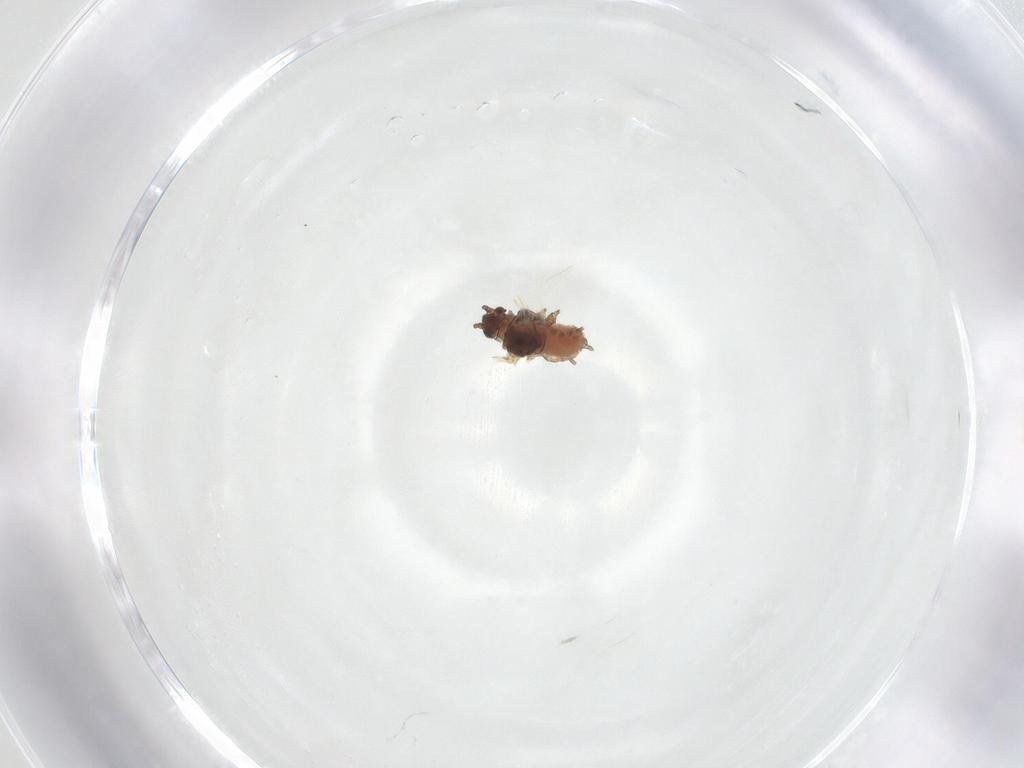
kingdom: Animalia
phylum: Arthropoda
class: Insecta
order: Hemiptera
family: Aphididae
